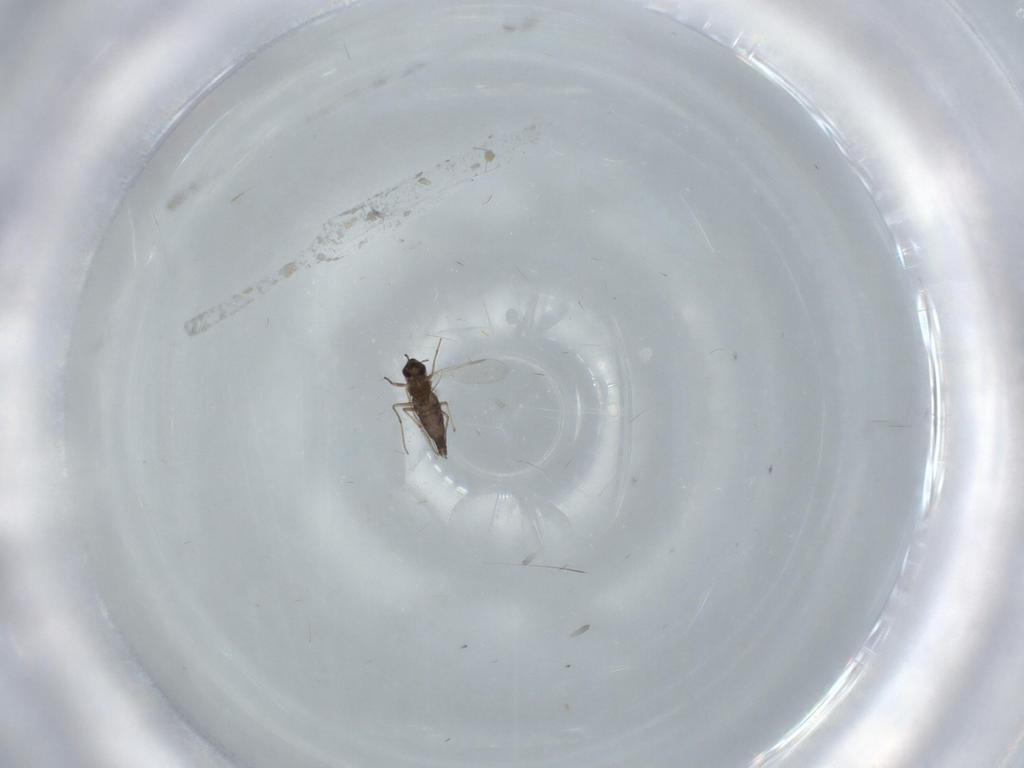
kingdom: Animalia
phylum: Arthropoda
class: Insecta
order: Diptera
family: Chironomidae
